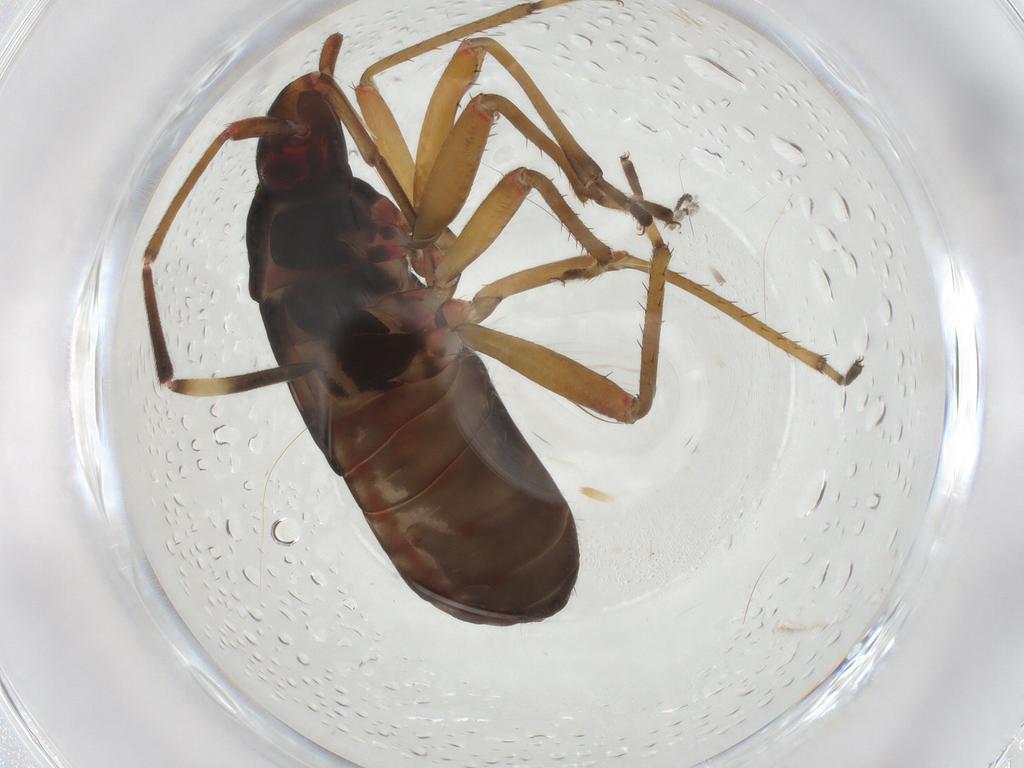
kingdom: Animalia
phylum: Arthropoda
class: Insecta
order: Hemiptera
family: Rhyparochromidae
